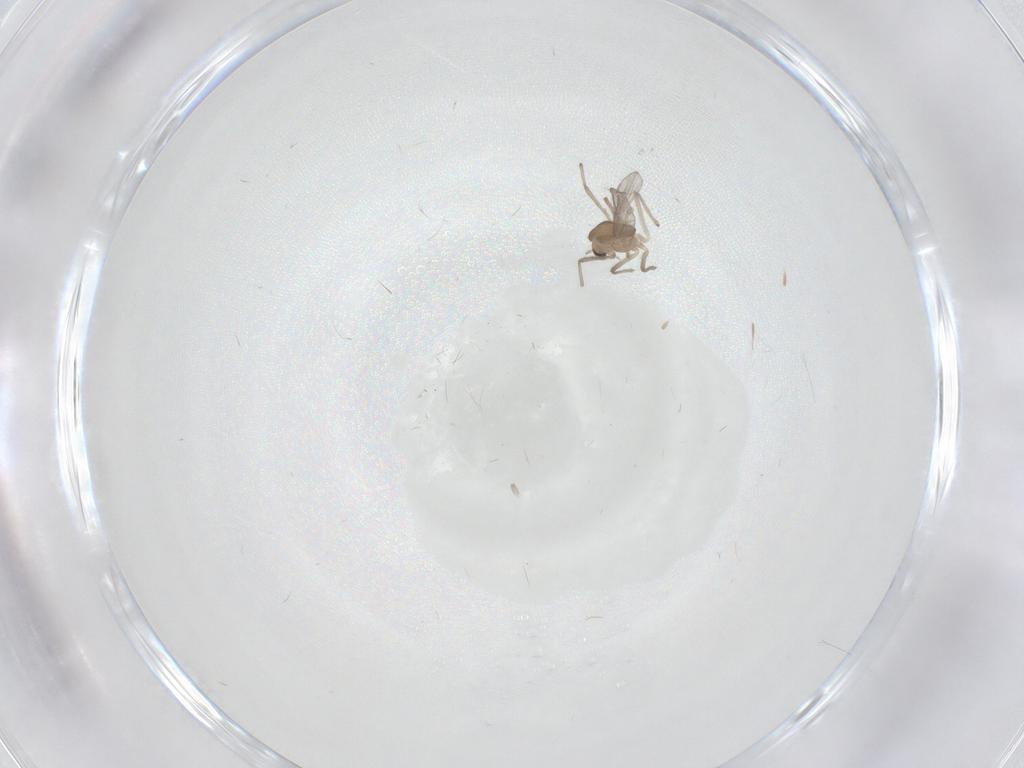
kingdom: Animalia
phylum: Arthropoda
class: Insecta
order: Diptera
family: Chironomidae
